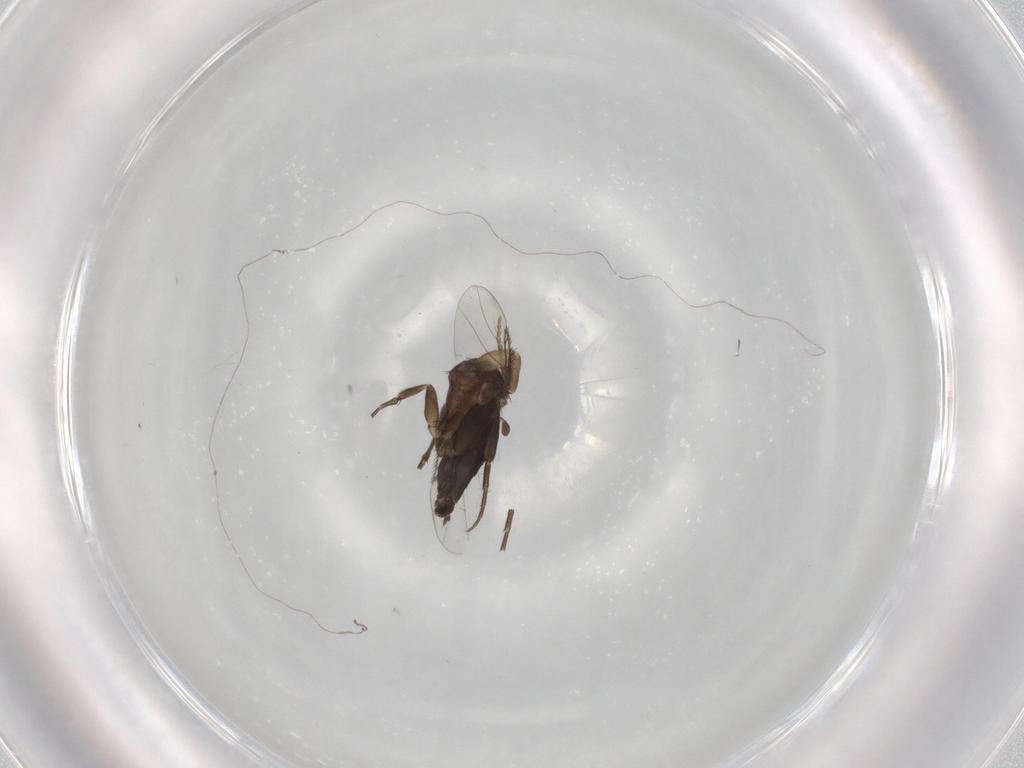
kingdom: Animalia
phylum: Arthropoda
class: Insecta
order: Diptera
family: Phoridae
